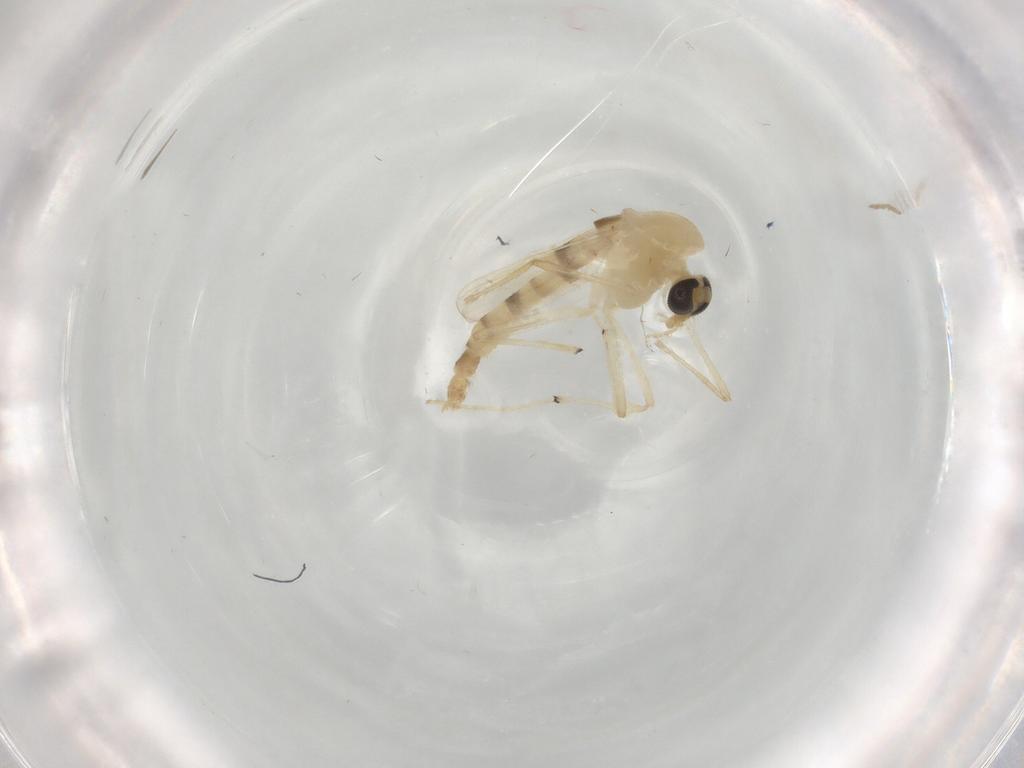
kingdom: Animalia
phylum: Arthropoda
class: Insecta
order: Diptera
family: Chironomidae
